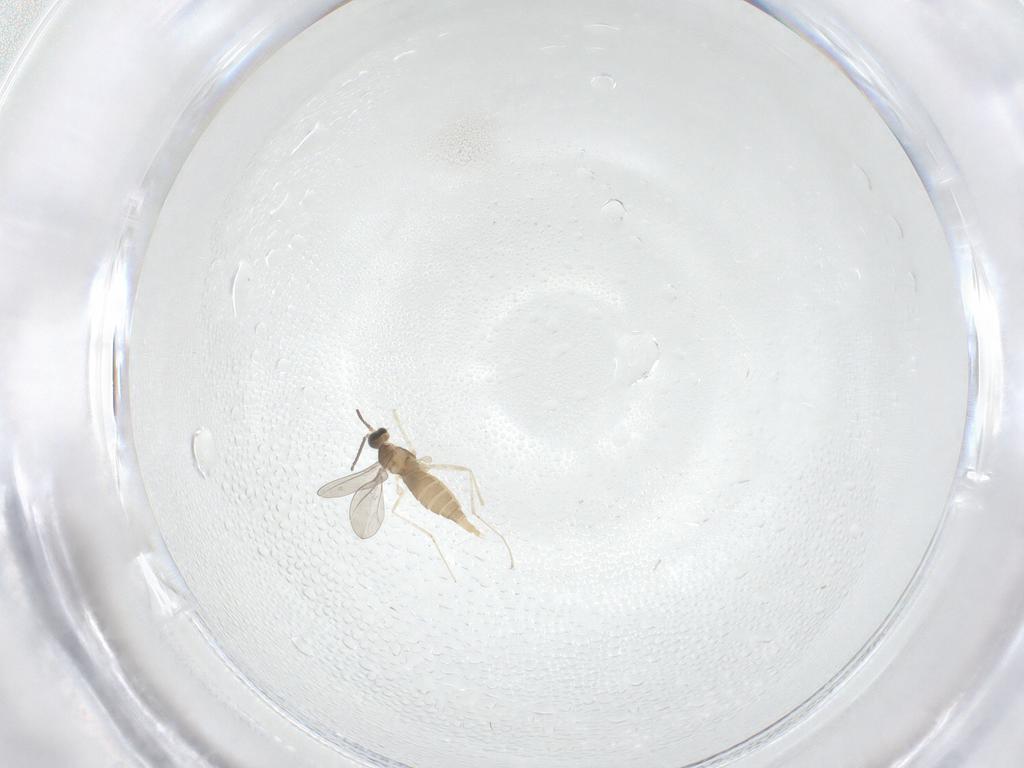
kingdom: Animalia
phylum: Arthropoda
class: Insecta
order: Diptera
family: Cecidomyiidae
